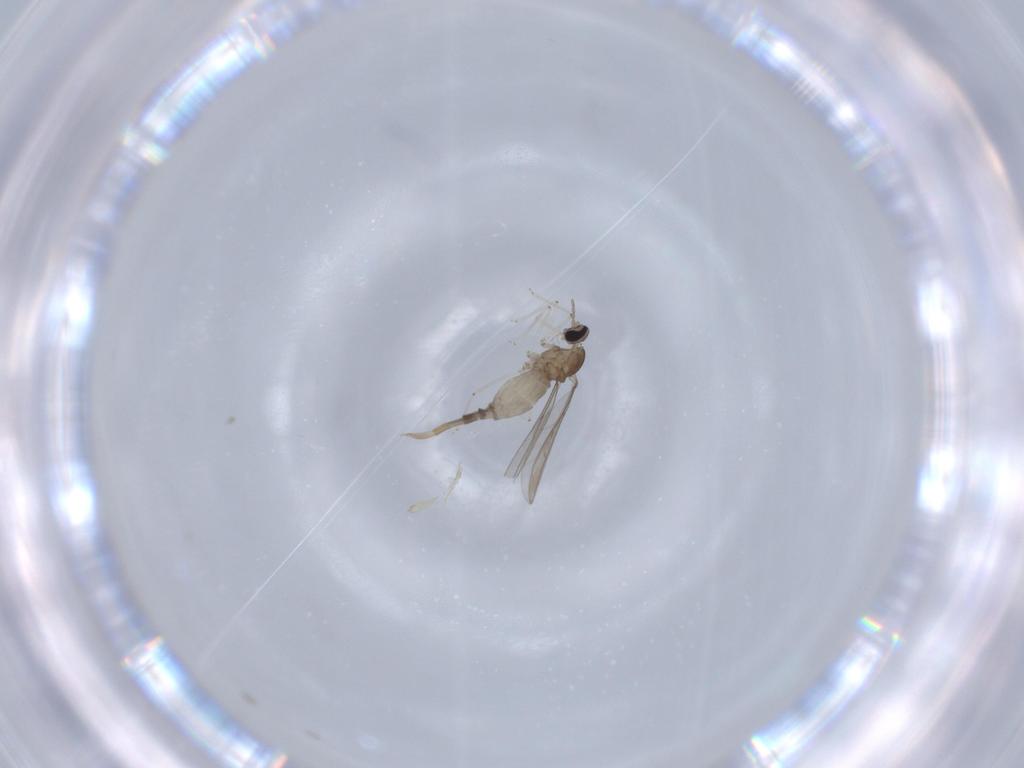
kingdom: Animalia
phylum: Arthropoda
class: Insecta
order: Diptera
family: Cecidomyiidae
